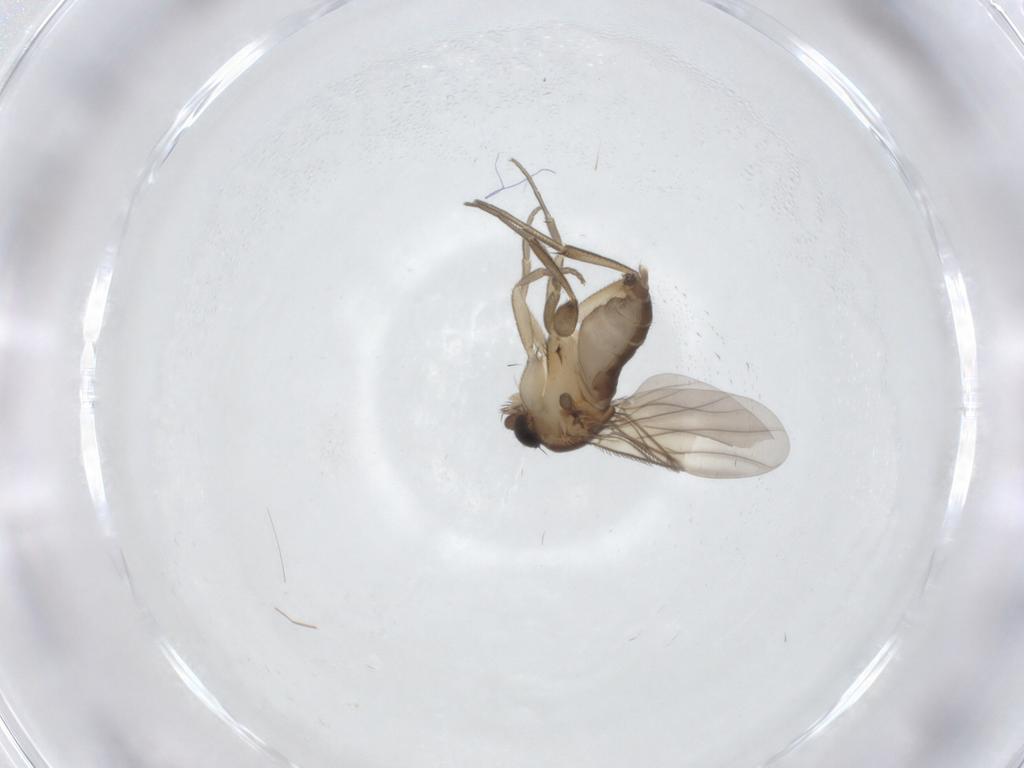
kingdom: Animalia
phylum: Arthropoda
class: Insecta
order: Diptera
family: Phoridae
